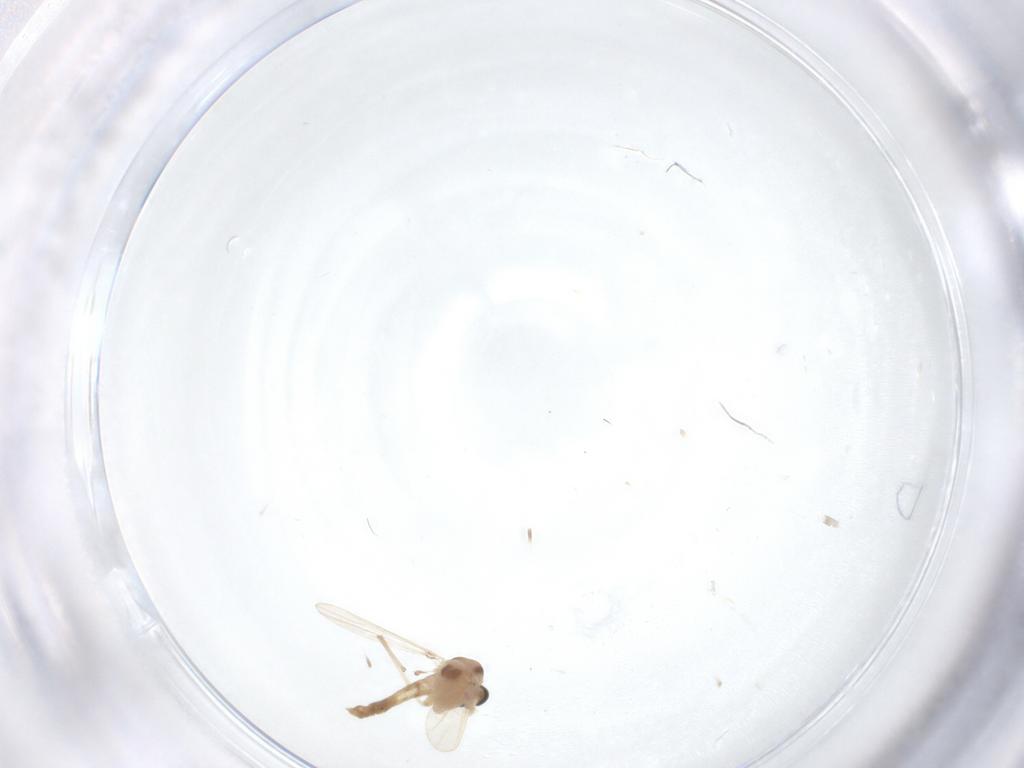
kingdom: Animalia
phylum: Arthropoda
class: Insecta
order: Diptera
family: Chironomidae
